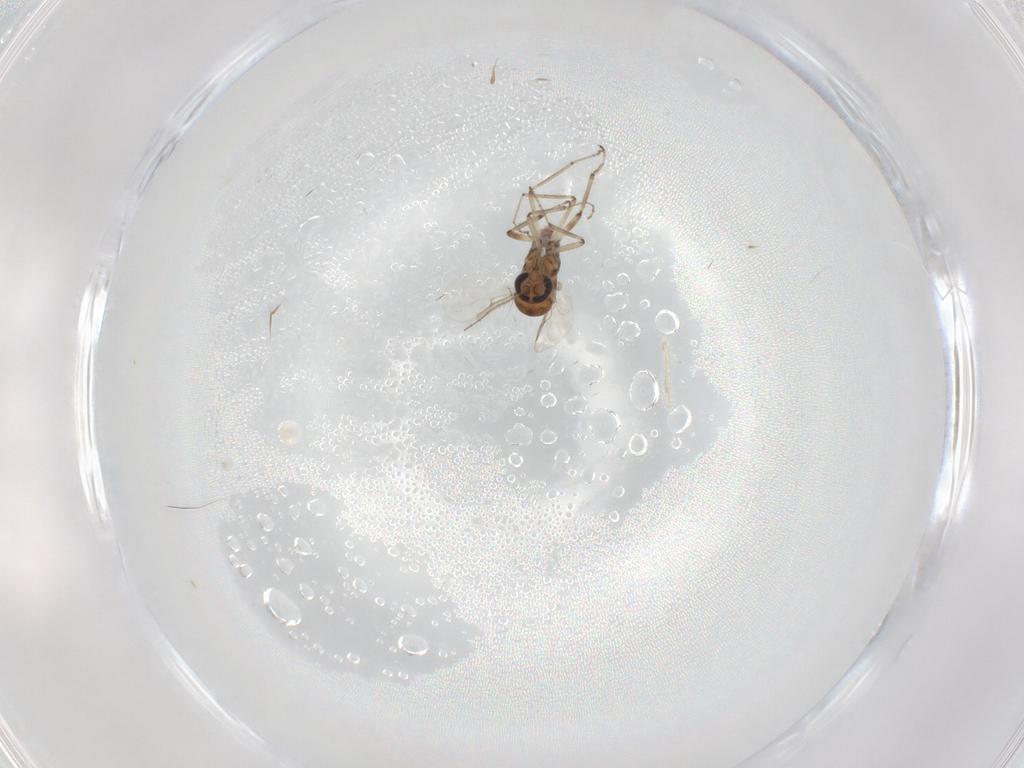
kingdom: Animalia
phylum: Arthropoda
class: Insecta
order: Diptera
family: Ceratopogonidae
